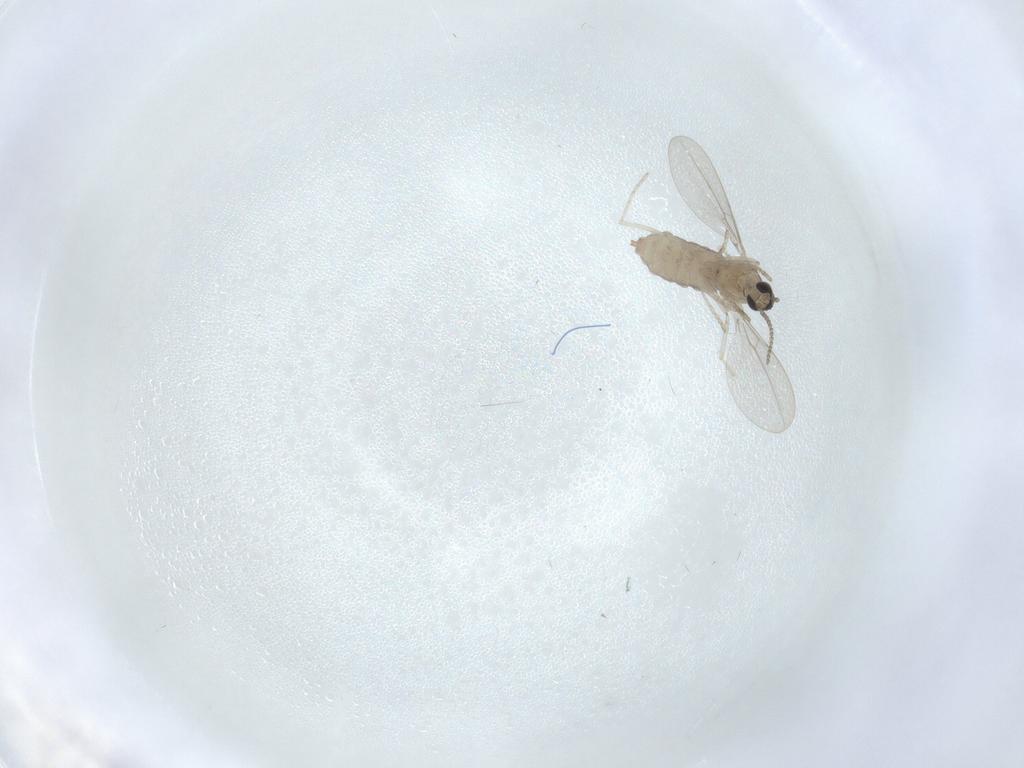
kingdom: Animalia
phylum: Arthropoda
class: Insecta
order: Diptera
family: Cecidomyiidae
